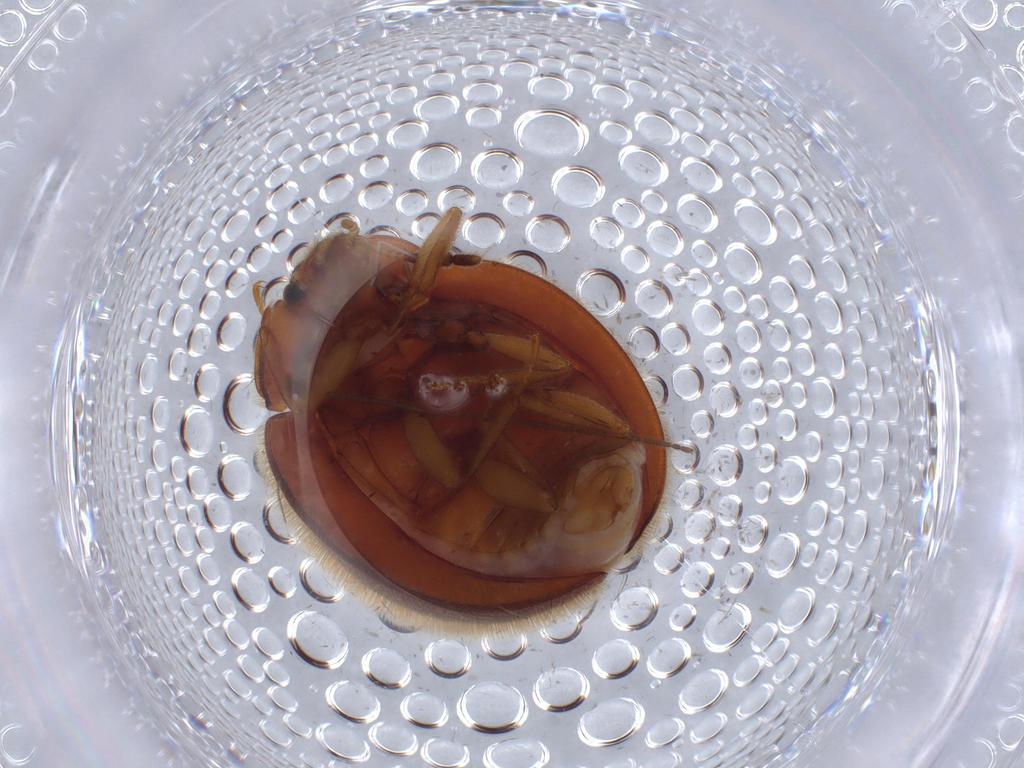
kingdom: Animalia
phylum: Arthropoda
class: Insecta
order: Coleoptera
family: Anamorphidae
